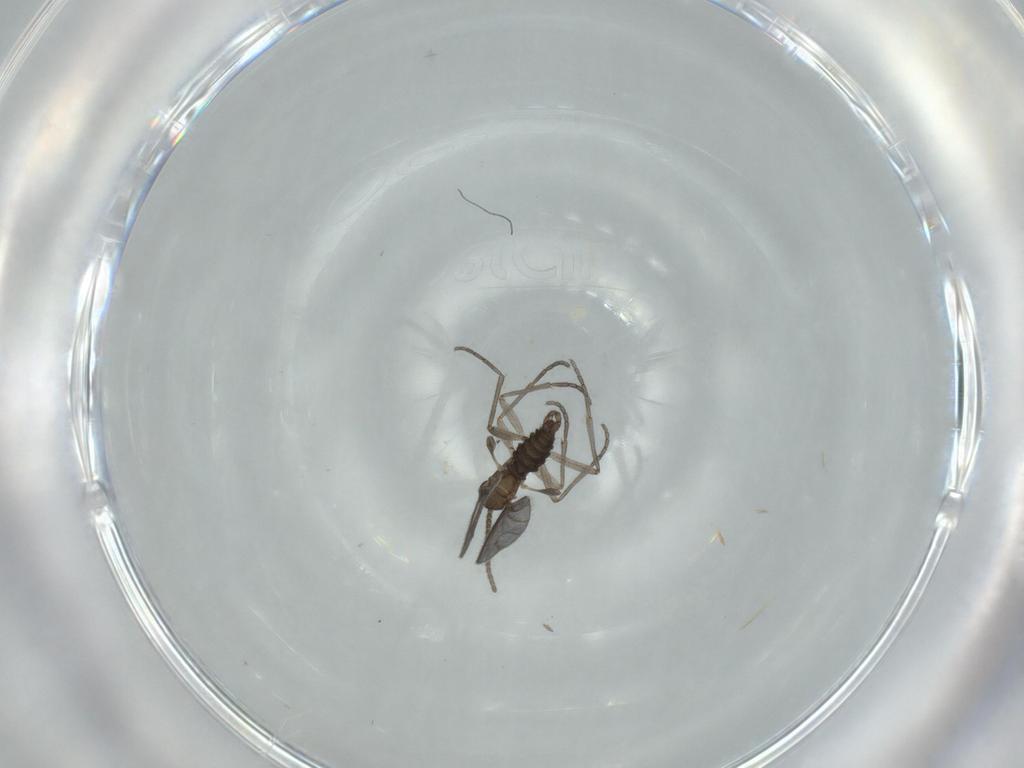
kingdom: Animalia
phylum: Arthropoda
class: Insecta
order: Diptera
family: Sciaridae
